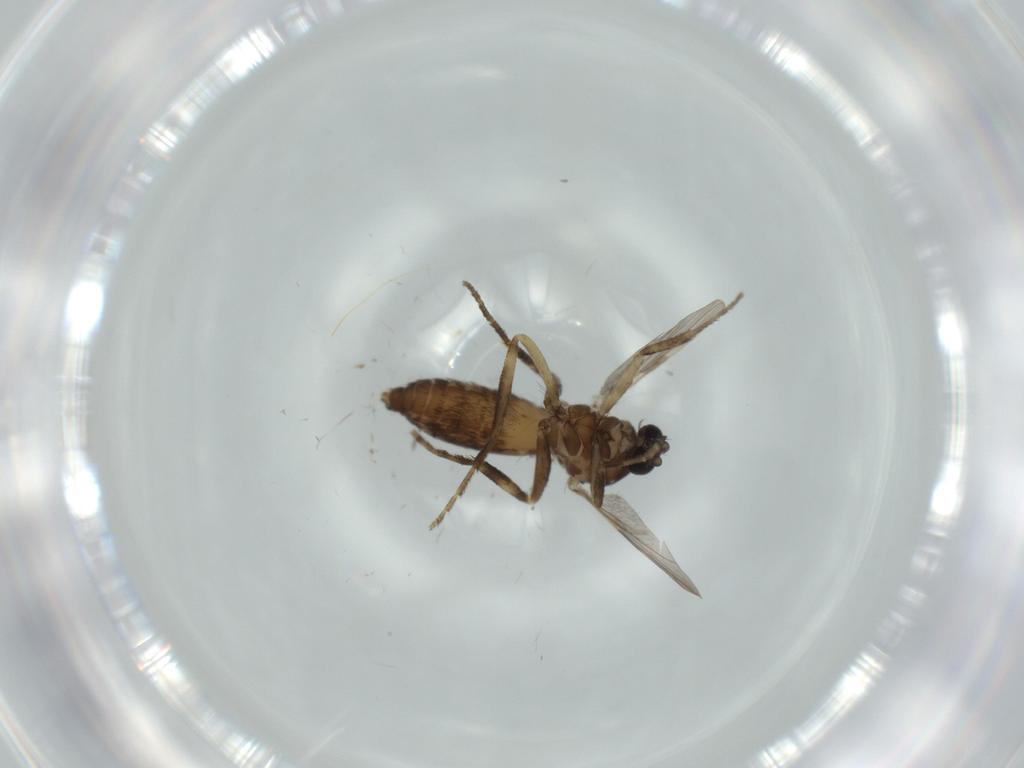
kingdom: Animalia
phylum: Arthropoda
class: Insecta
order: Diptera
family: Ceratopogonidae
